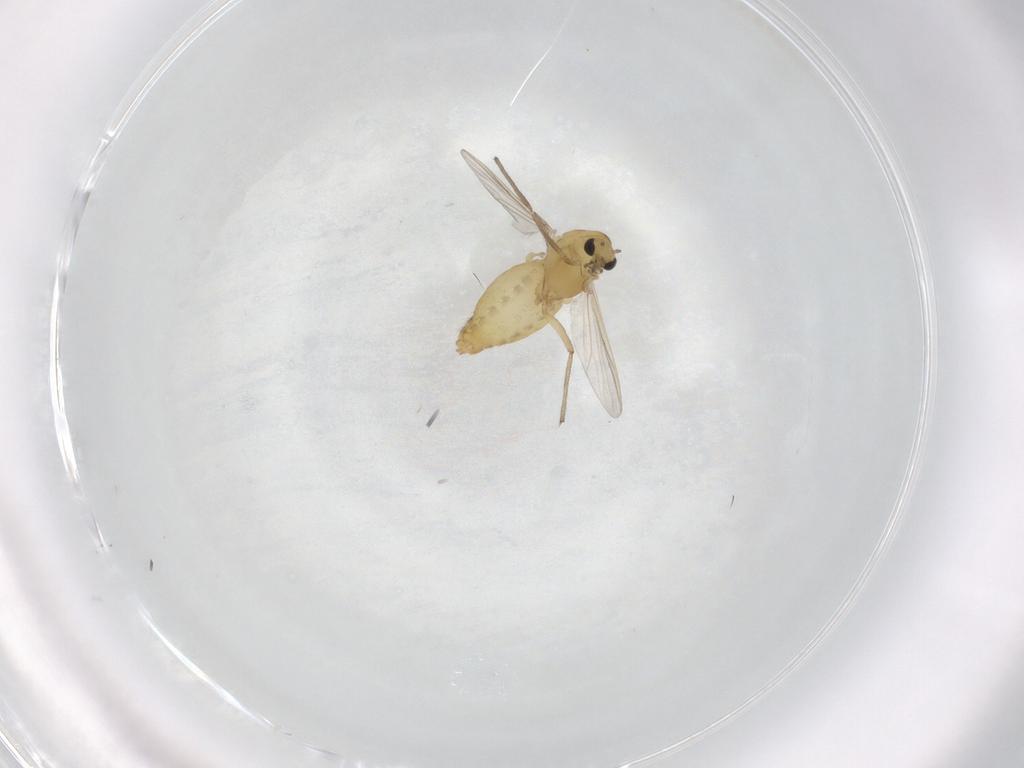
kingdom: Animalia
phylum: Arthropoda
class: Insecta
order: Diptera
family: Chironomidae
